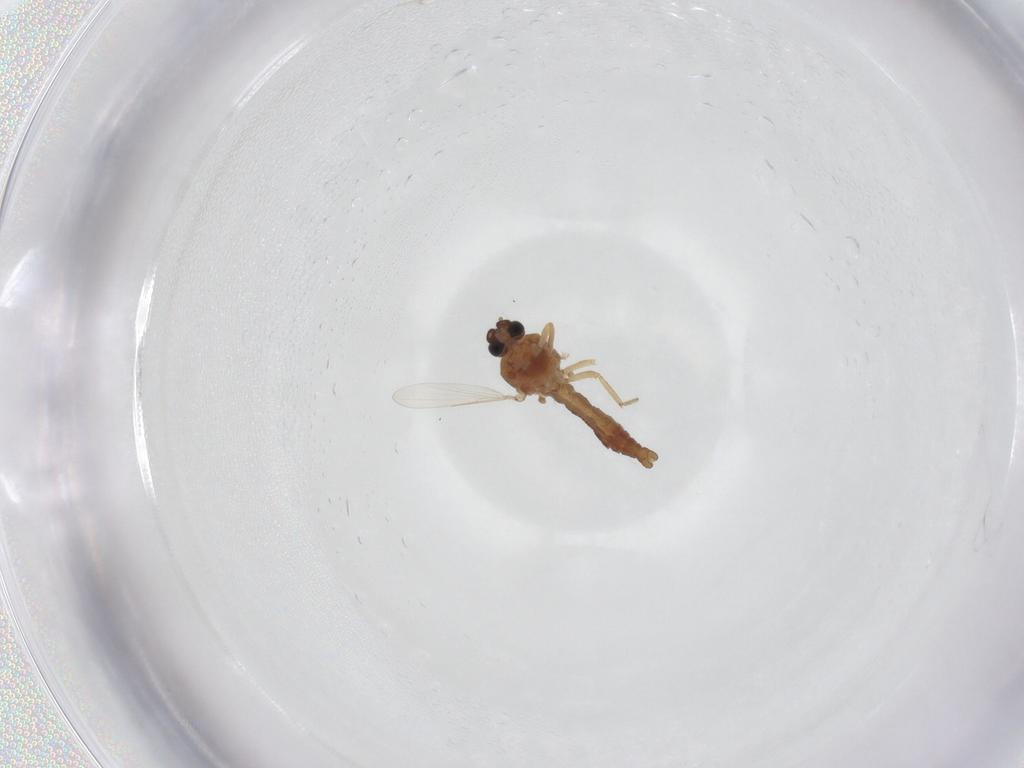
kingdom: Animalia
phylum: Arthropoda
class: Insecta
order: Diptera
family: Ceratopogonidae
